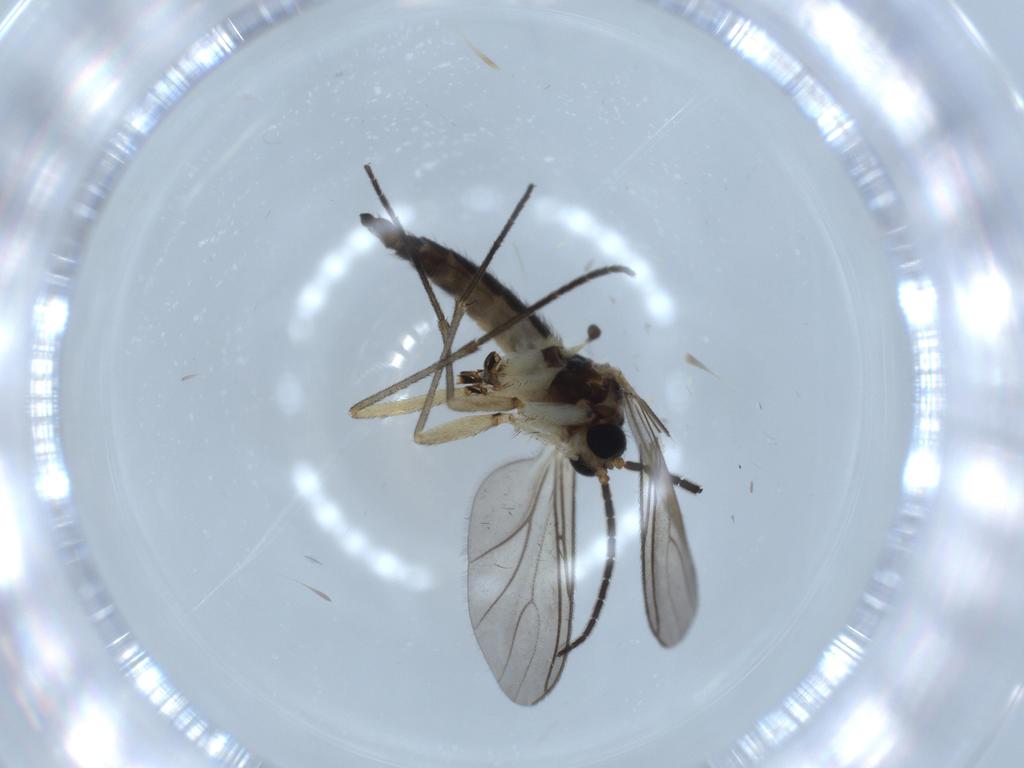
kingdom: Animalia
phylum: Arthropoda
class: Insecta
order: Diptera
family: Sciaridae
